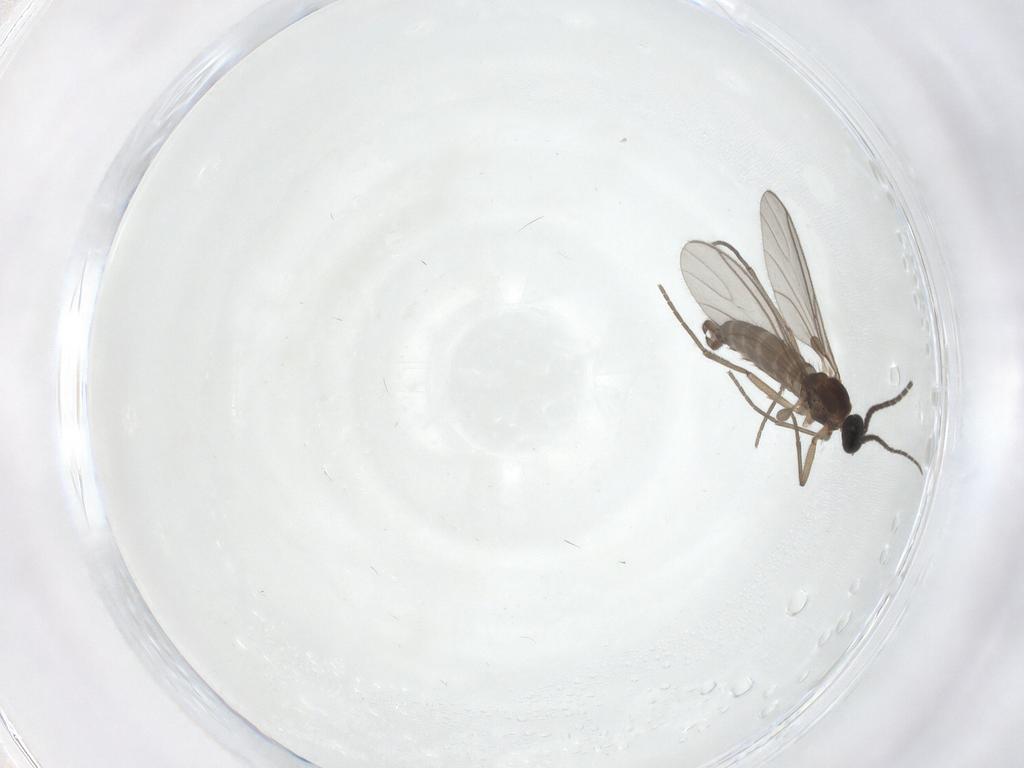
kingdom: Animalia
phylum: Arthropoda
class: Insecta
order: Diptera
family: Sciaridae
